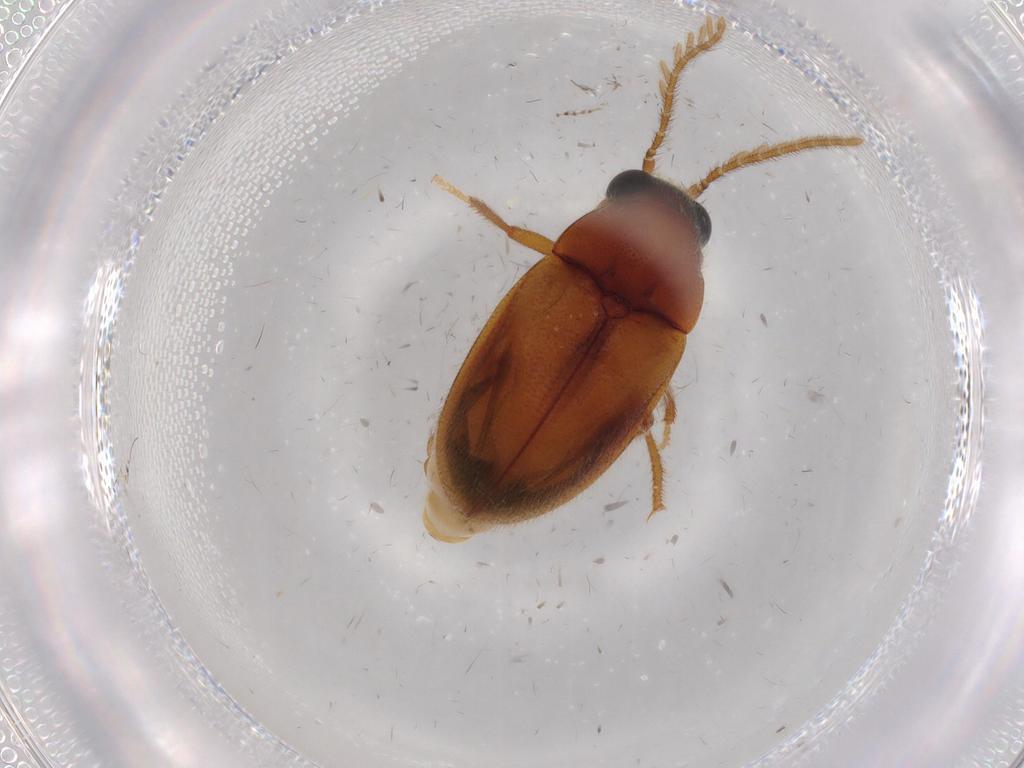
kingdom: Animalia
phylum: Arthropoda
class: Insecta
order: Coleoptera
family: Ptilodactylidae
